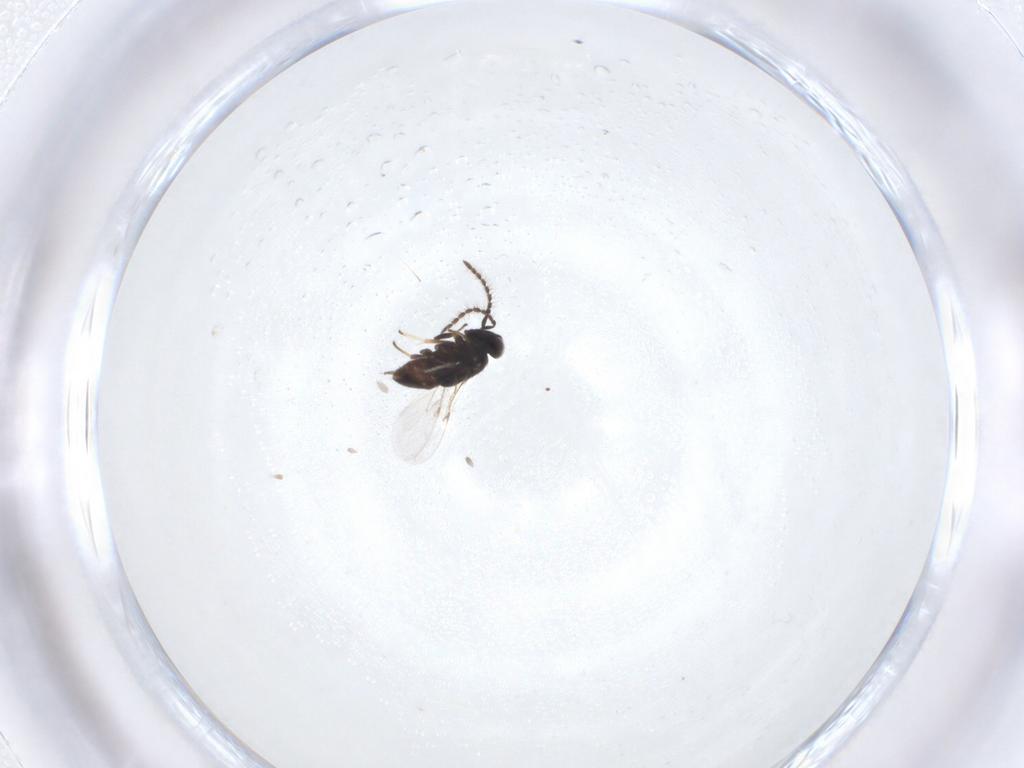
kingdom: Animalia
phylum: Arthropoda
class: Insecta
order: Hymenoptera
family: Encyrtidae
